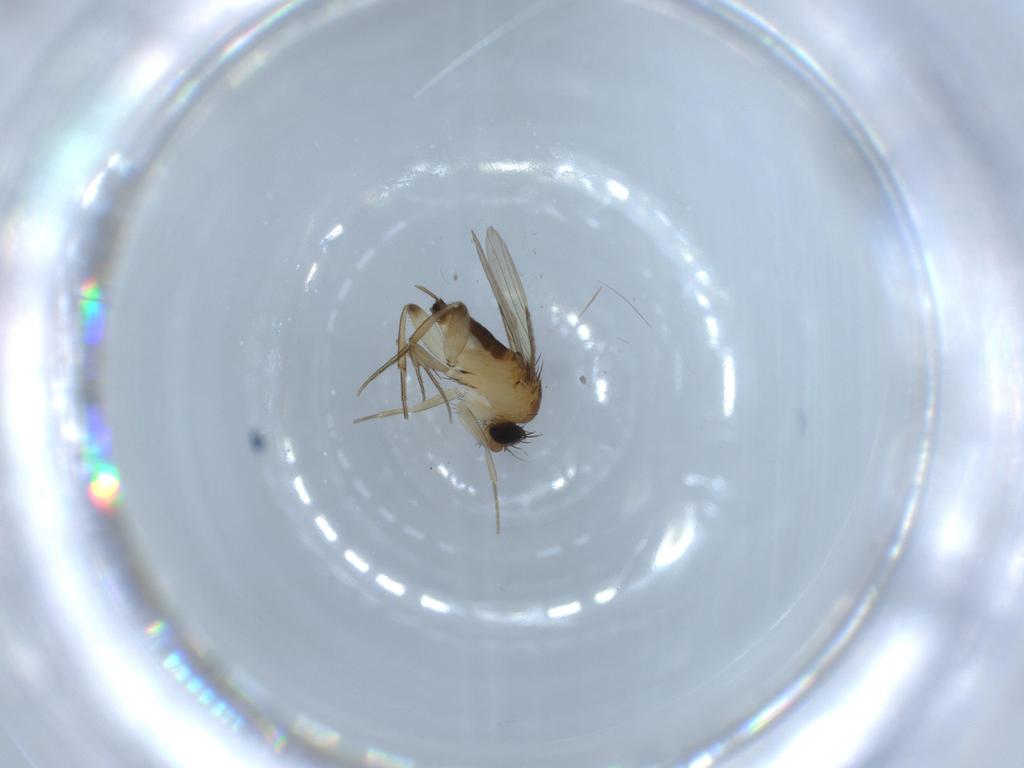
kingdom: Animalia
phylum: Arthropoda
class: Insecta
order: Diptera
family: Phoridae
